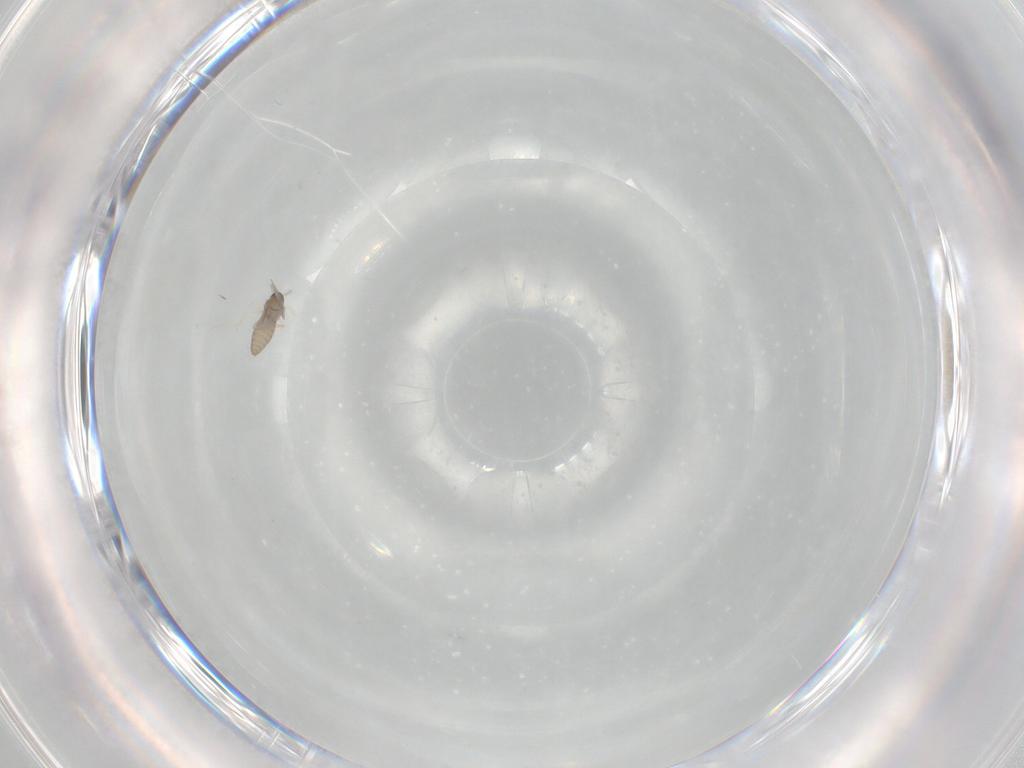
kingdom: Animalia
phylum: Arthropoda
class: Insecta
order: Diptera
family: Cecidomyiidae
